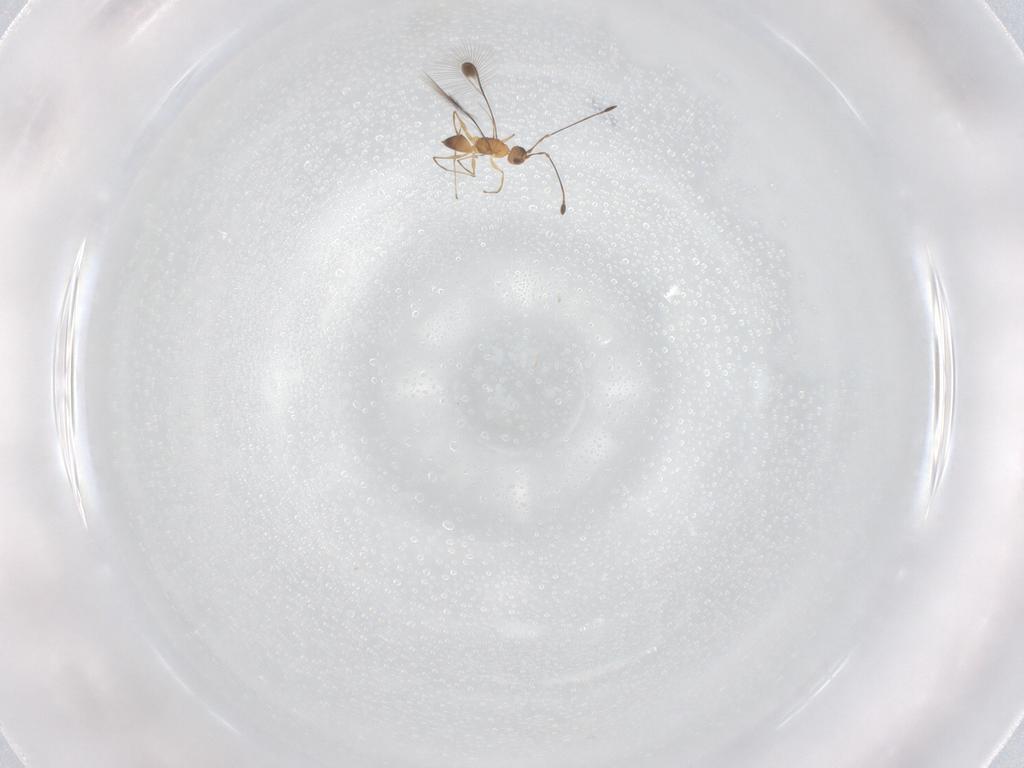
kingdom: Animalia
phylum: Arthropoda
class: Insecta
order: Hymenoptera
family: Mymaridae
